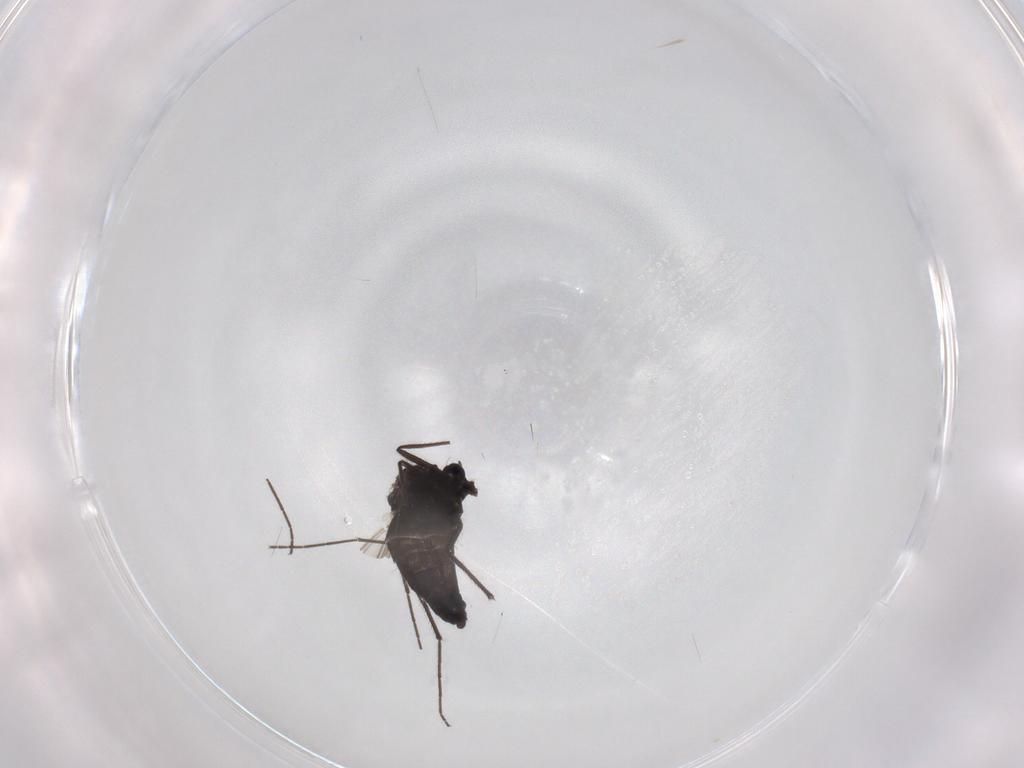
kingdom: Animalia
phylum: Arthropoda
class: Insecta
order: Diptera
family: Chironomidae
